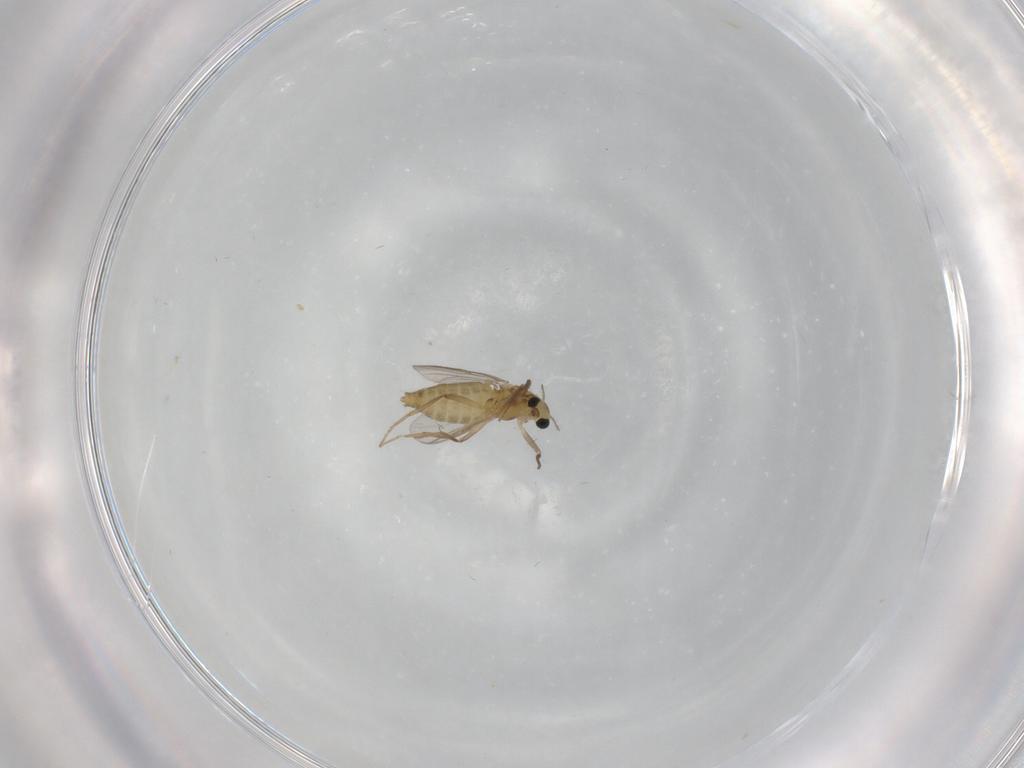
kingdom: Animalia
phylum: Arthropoda
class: Insecta
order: Diptera
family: Chironomidae
